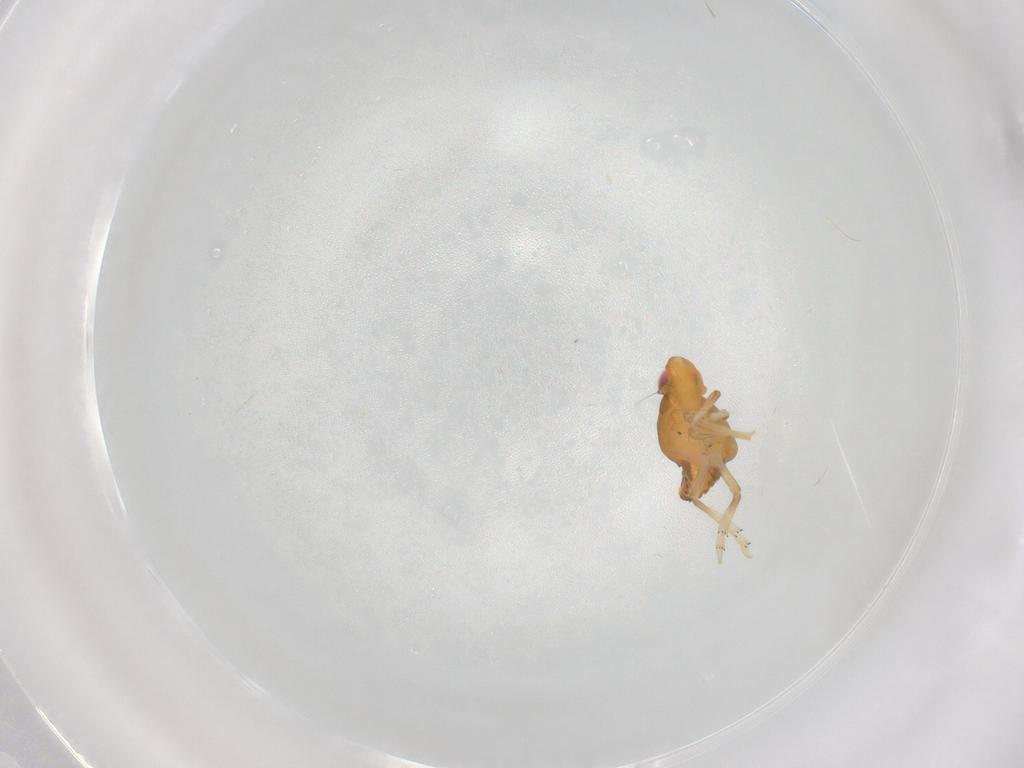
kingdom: Animalia
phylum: Arthropoda
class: Insecta
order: Hemiptera
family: Fulgoroidea_incertae_sedis
